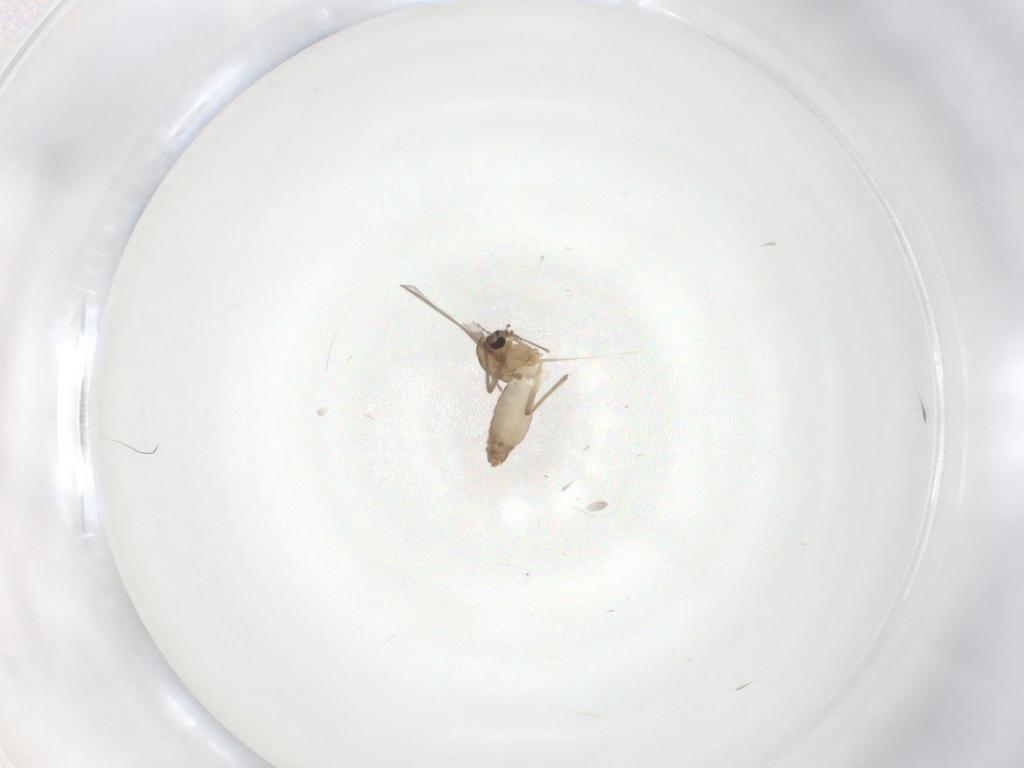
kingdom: Animalia
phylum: Arthropoda
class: Insecta
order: Diptera
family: Chironomidae
